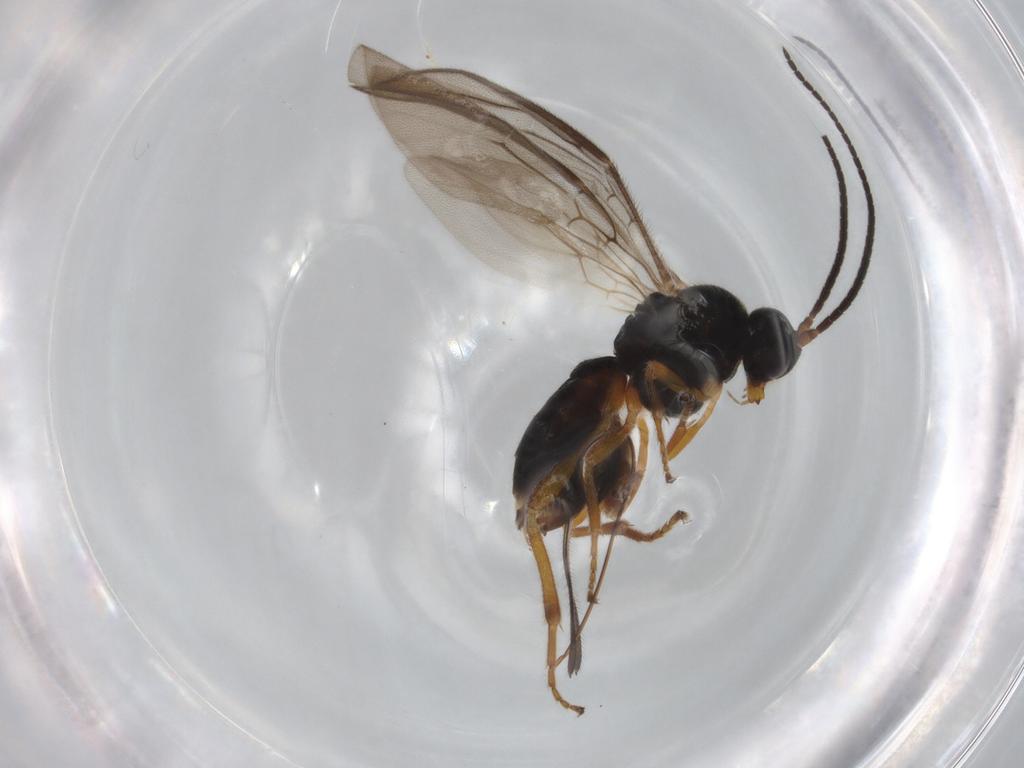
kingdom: Animalia
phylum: Arthropoda
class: Insecta
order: Hymenoptera
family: Braconidae
